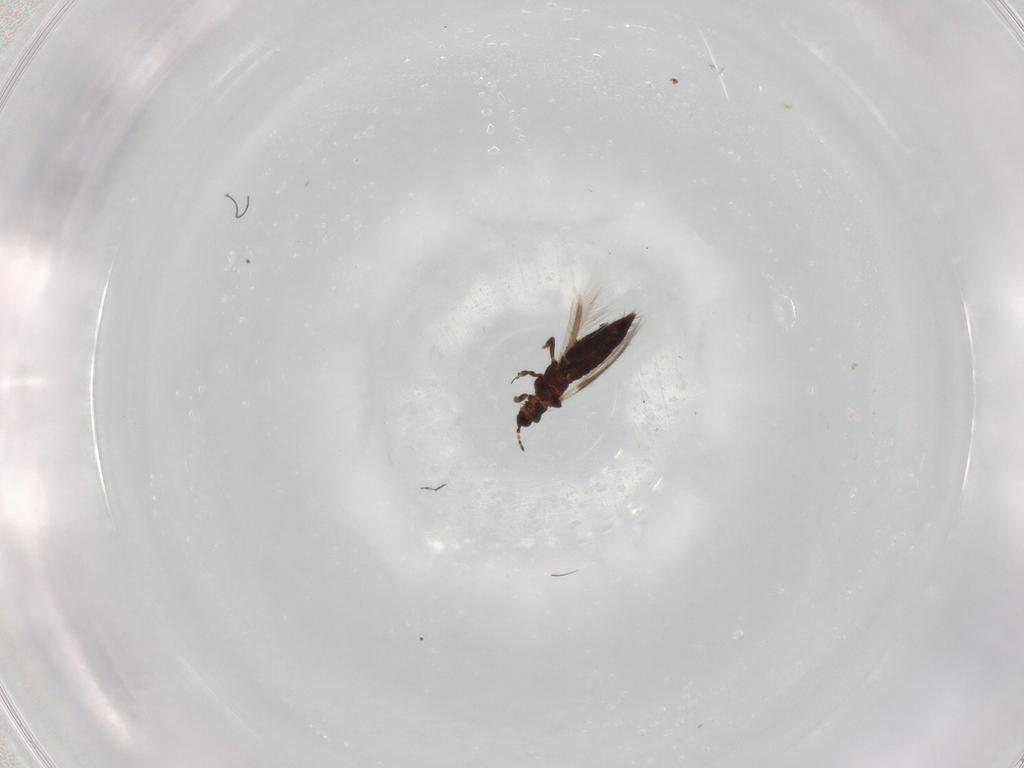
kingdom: Animalia
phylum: Arthropoda
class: Insecta
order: Thysanoptera
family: Thripidae
